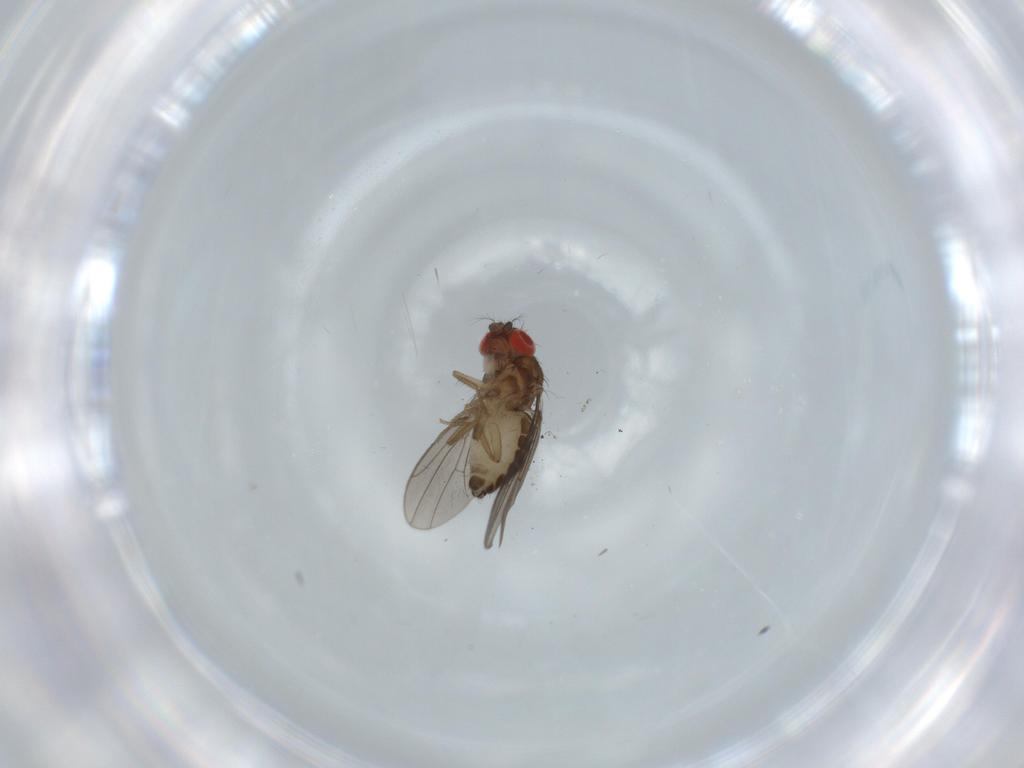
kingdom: Animalia
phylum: Arthropoda
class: Insecta
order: Diptera
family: Drosophilidae
